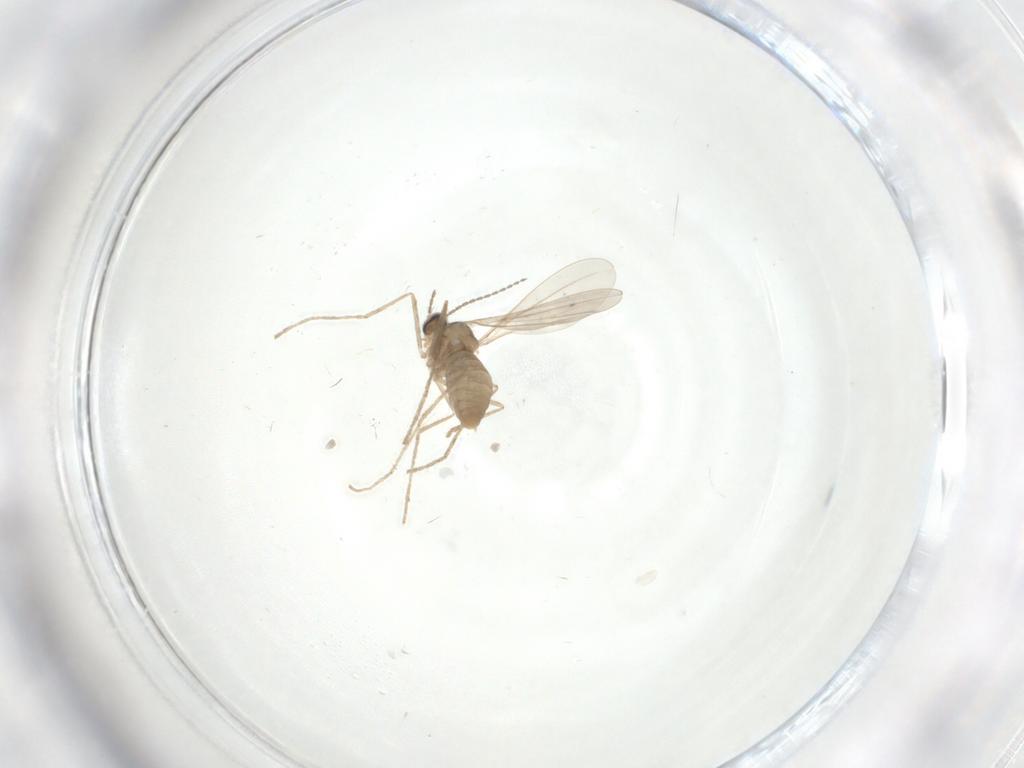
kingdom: Animalia
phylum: Arthropoda
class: Insecta
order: Diptera
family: Cecidomyiidae
